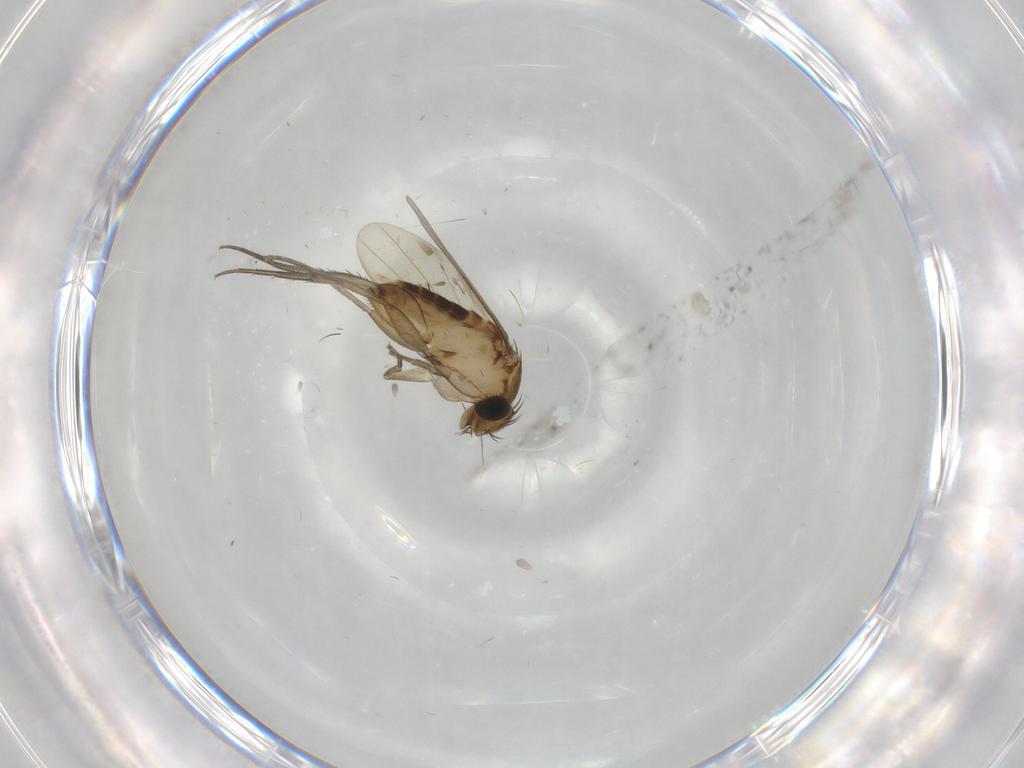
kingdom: Animalia
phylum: Arthropoda
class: Insecta
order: Diptera
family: Phoridae
